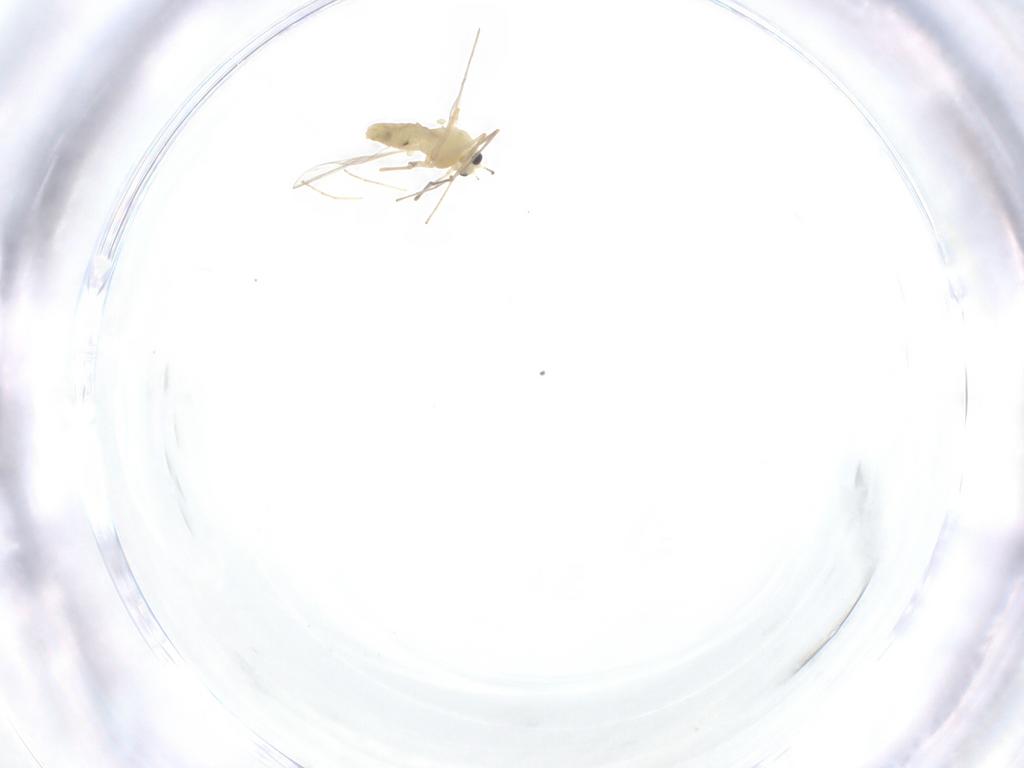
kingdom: Animalia
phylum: Arthropoda
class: Insecta
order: Diptera
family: Chironomidae
